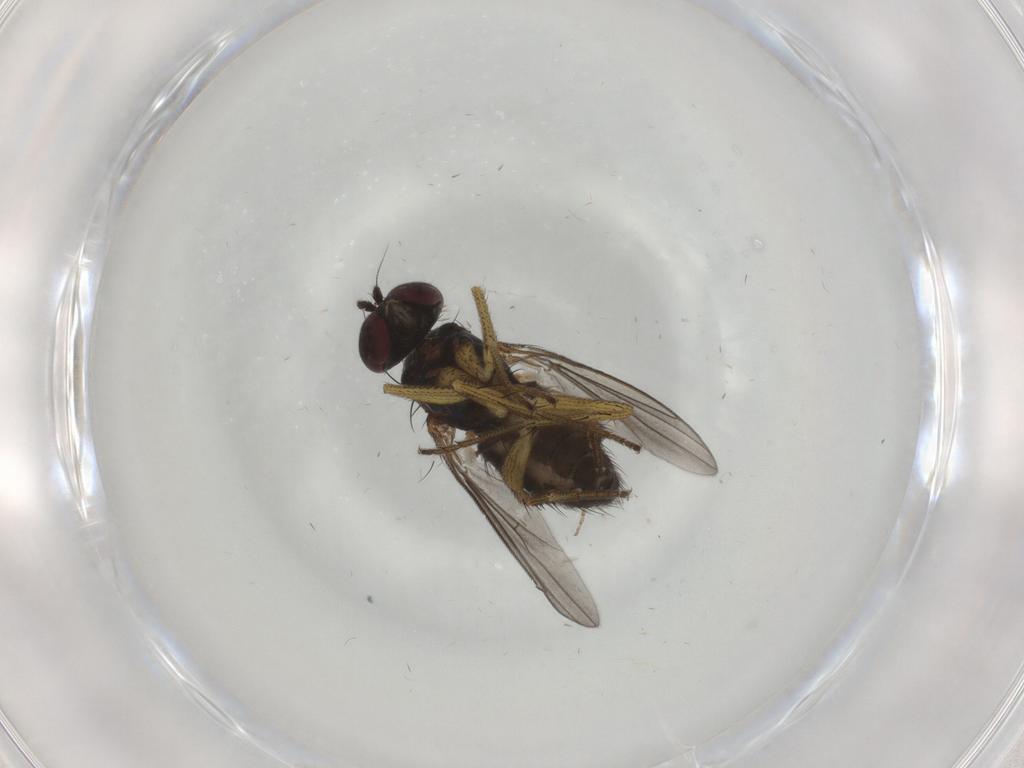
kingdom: Animalia
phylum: Arthropoda
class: Insecta
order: Diptera
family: Dolichopodidae
